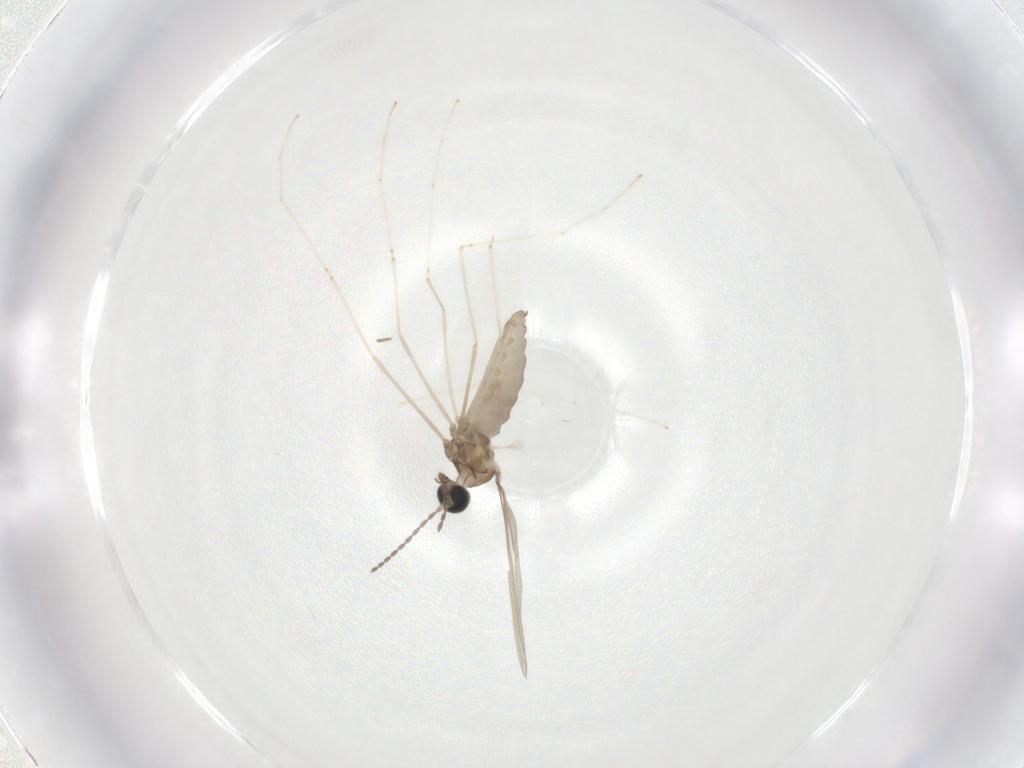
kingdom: Animalia
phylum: Arthropoda
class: Insecta
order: Diptera
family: Cecidomyiidae
